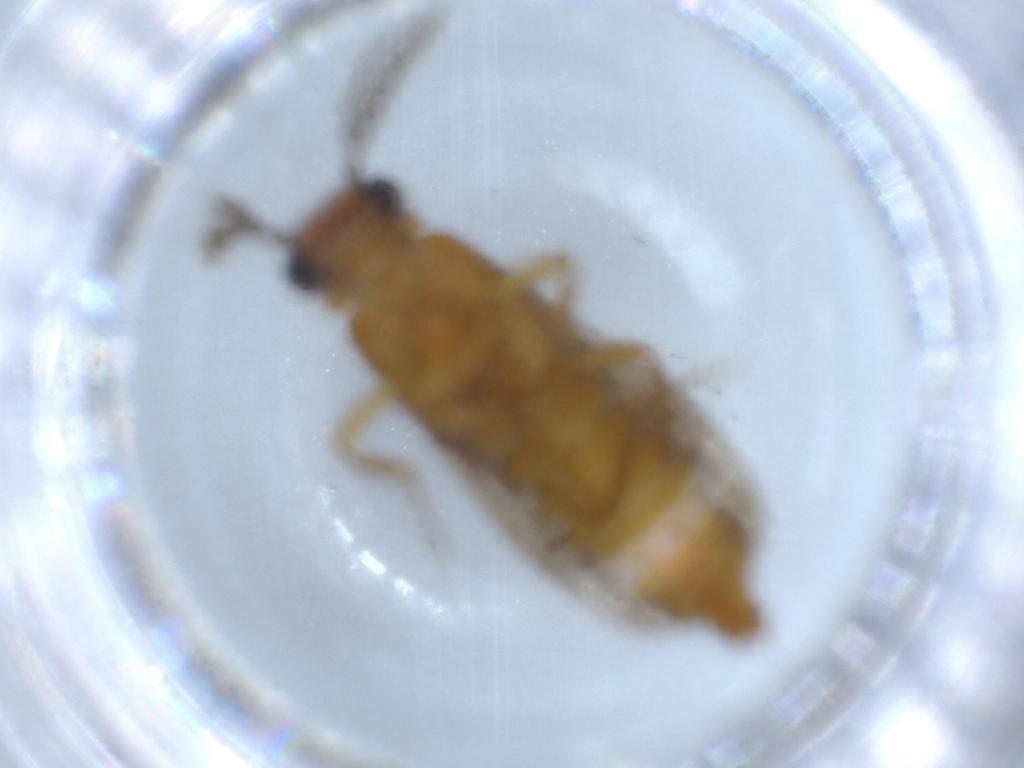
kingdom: Animalia
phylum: Arthropoda
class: Insecta
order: Coleoptera
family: Phengodidae
